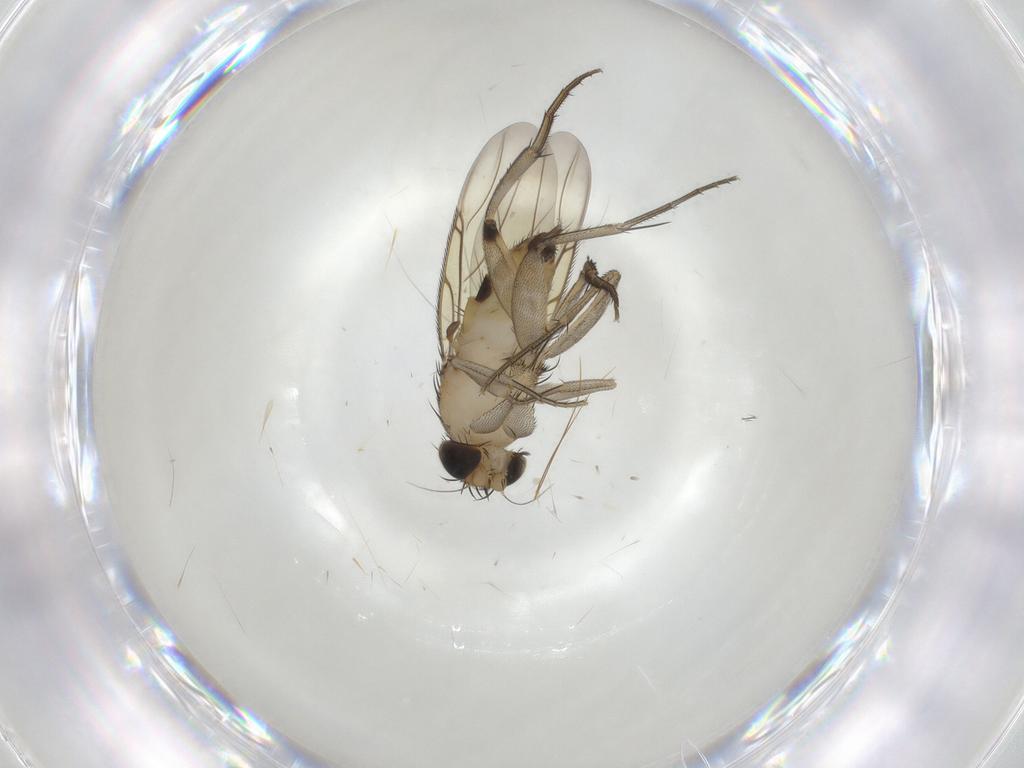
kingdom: Animalia
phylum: Arthropoda
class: Insecta
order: Diptera
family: Phoridae
